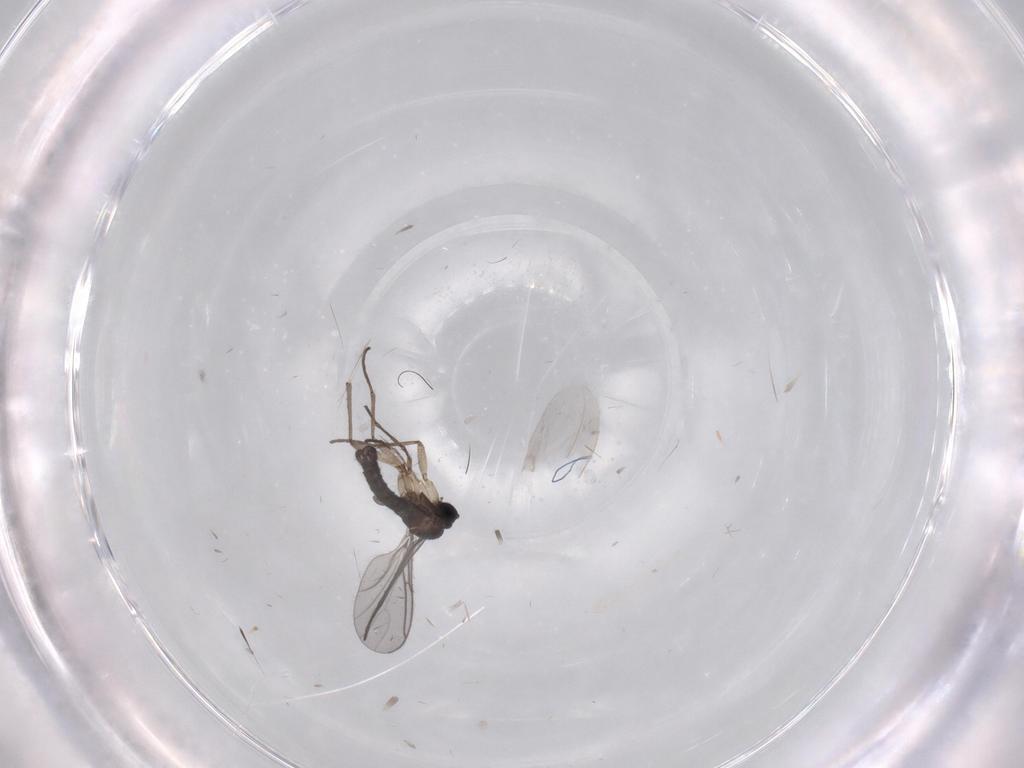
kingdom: Animalia
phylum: Arthropoda
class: Insecta
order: Diptera
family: Sciaridae
